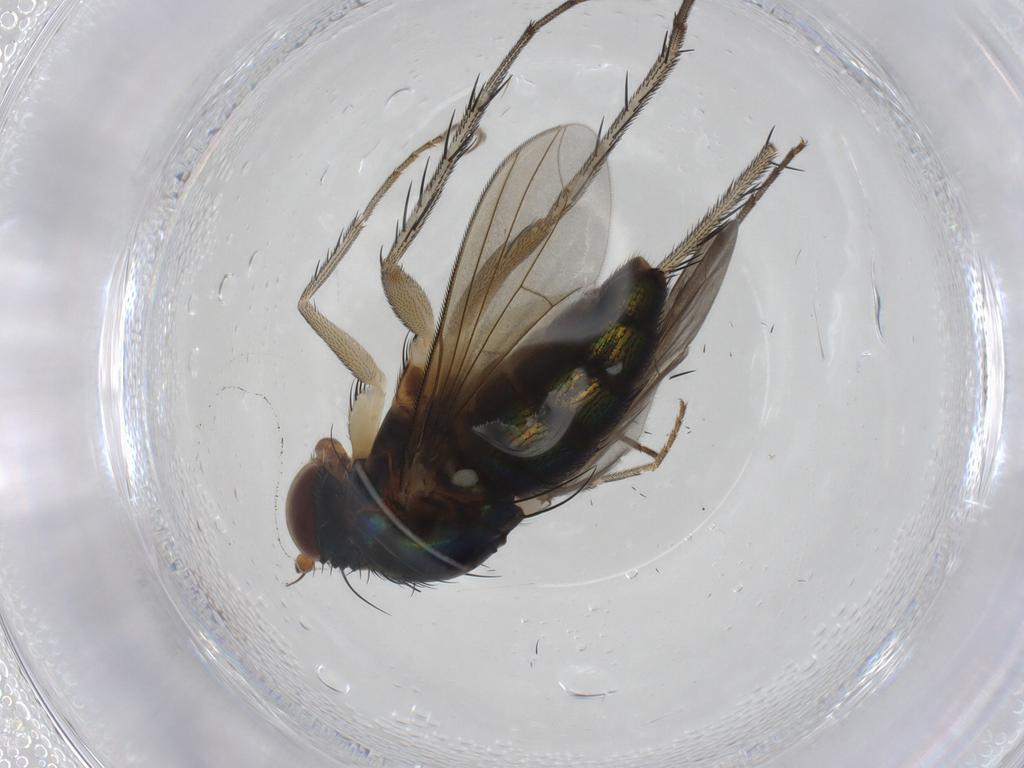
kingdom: Animalia
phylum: Arthropoda
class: Insecta
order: Diptera
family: Dolichopodidae
